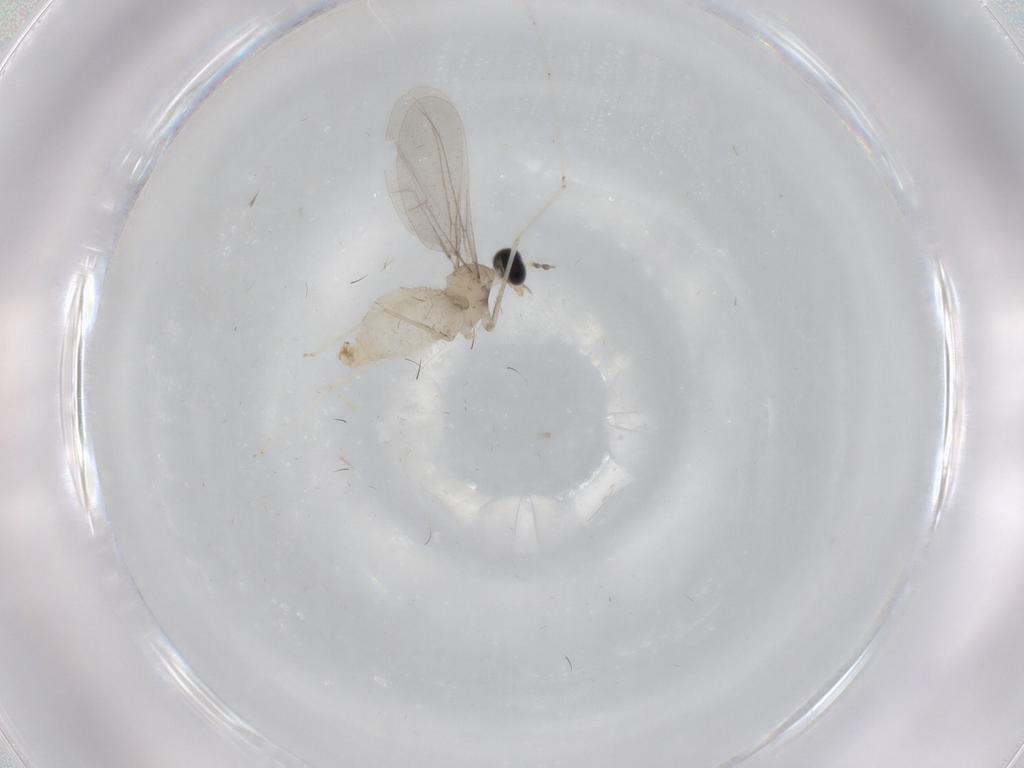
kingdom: Animalia
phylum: Arthropoda
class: Insecta
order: Diptera
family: Cecidomyiidae
